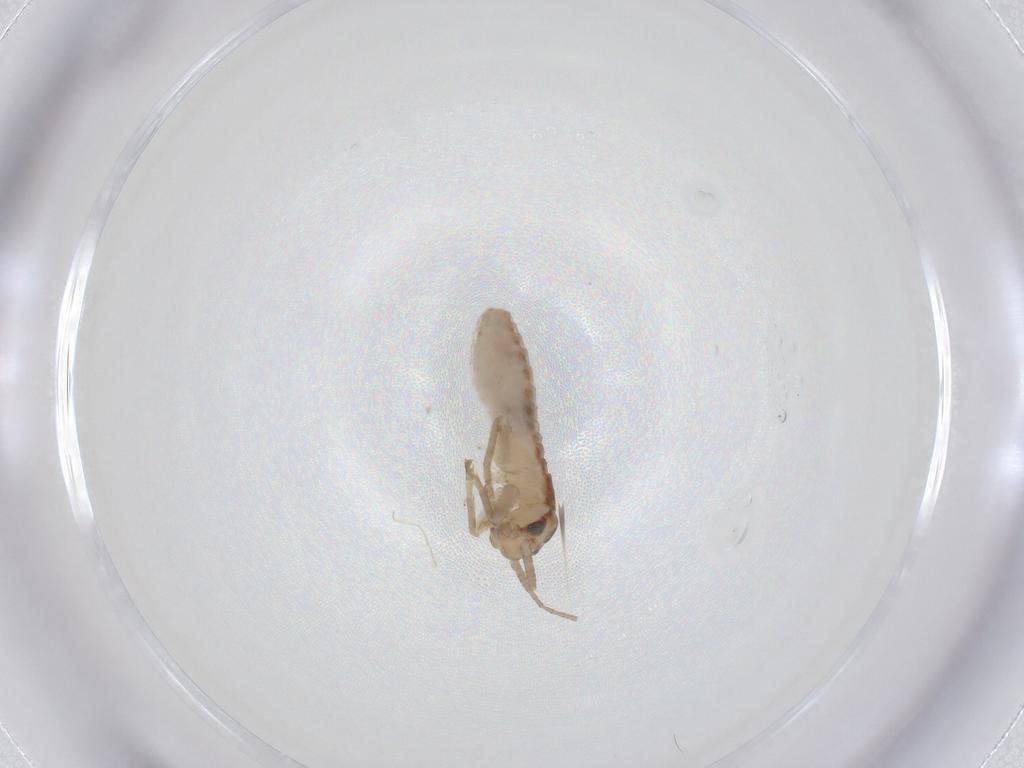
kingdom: Animalia
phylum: Arthropoda
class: Insecta
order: Orthoptera
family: Gryllidae
